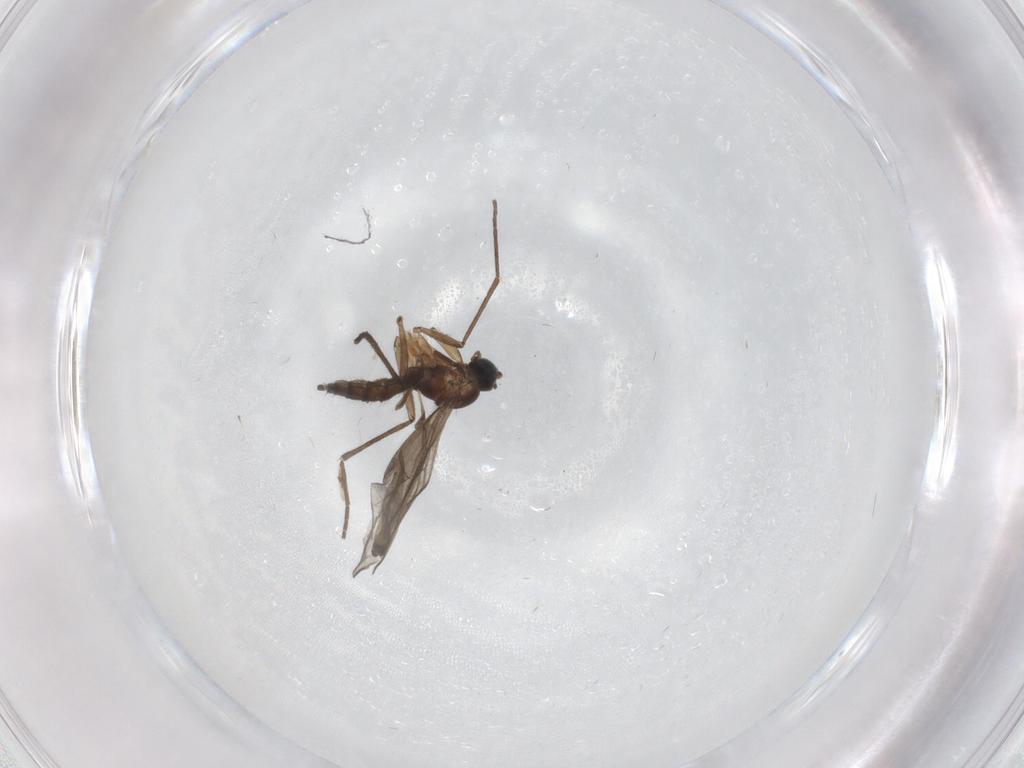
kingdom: Animalia
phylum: Arthropoda
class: Insecta
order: Diptera
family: Sciaridae
